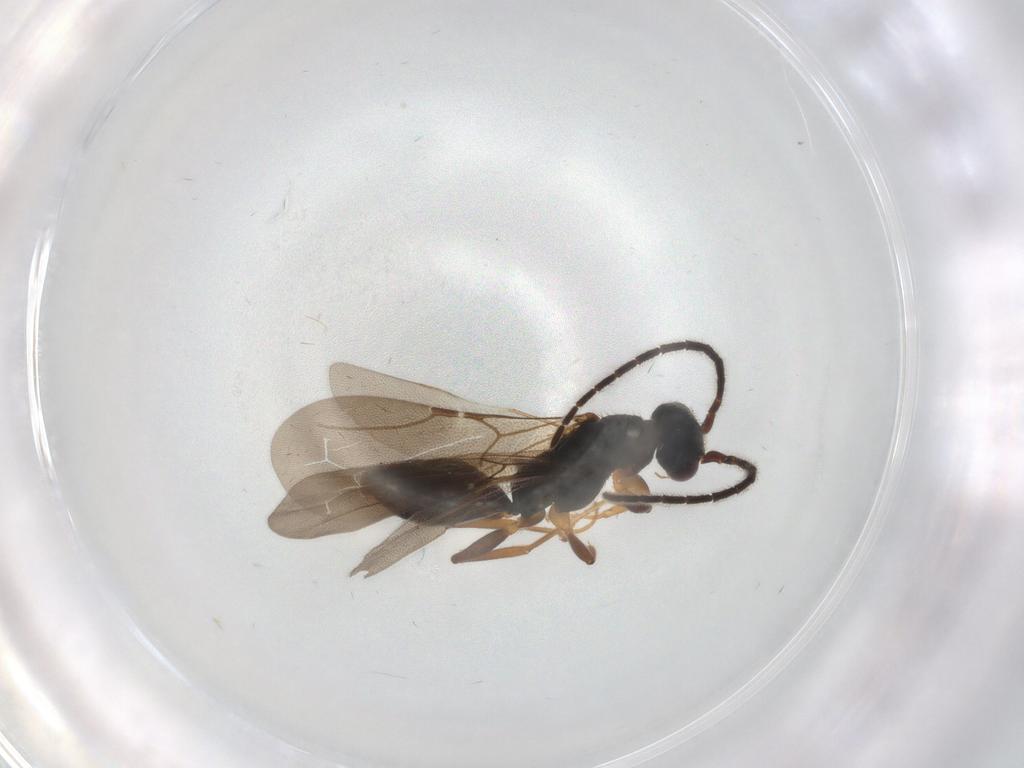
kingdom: Animalia
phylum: Arthropoda
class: Insecta
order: Hymenoptera
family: Bethylidae
